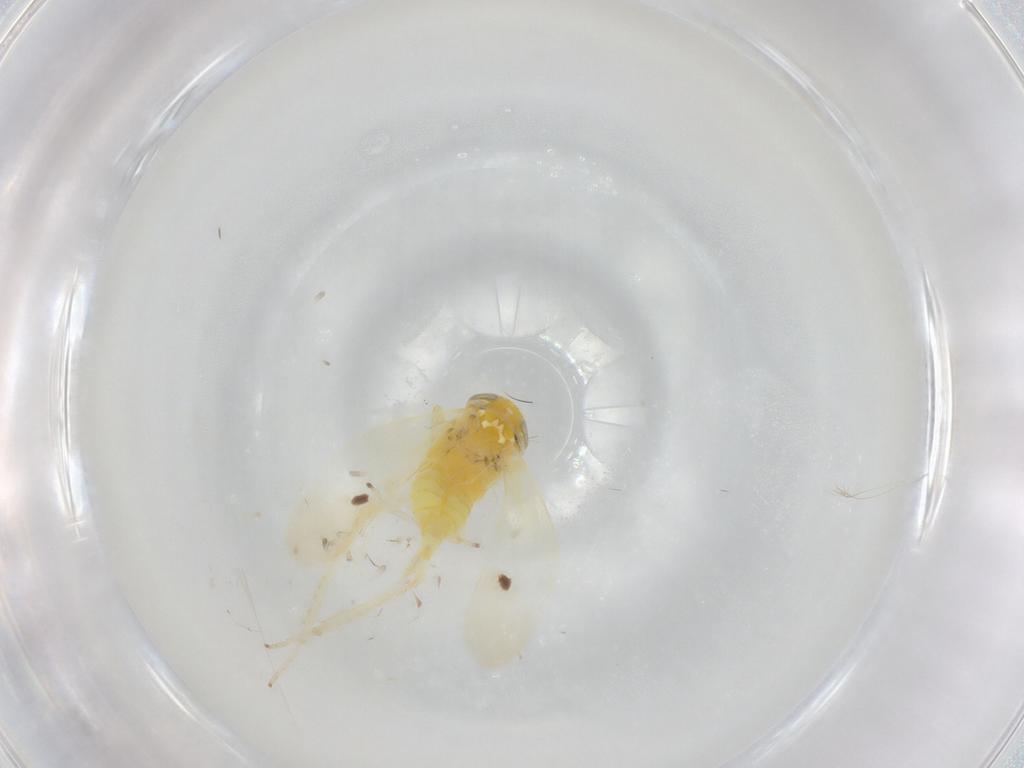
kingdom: Animalia
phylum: Arthropoda
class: Insecta
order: Hemiptera
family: Cicadellidae
